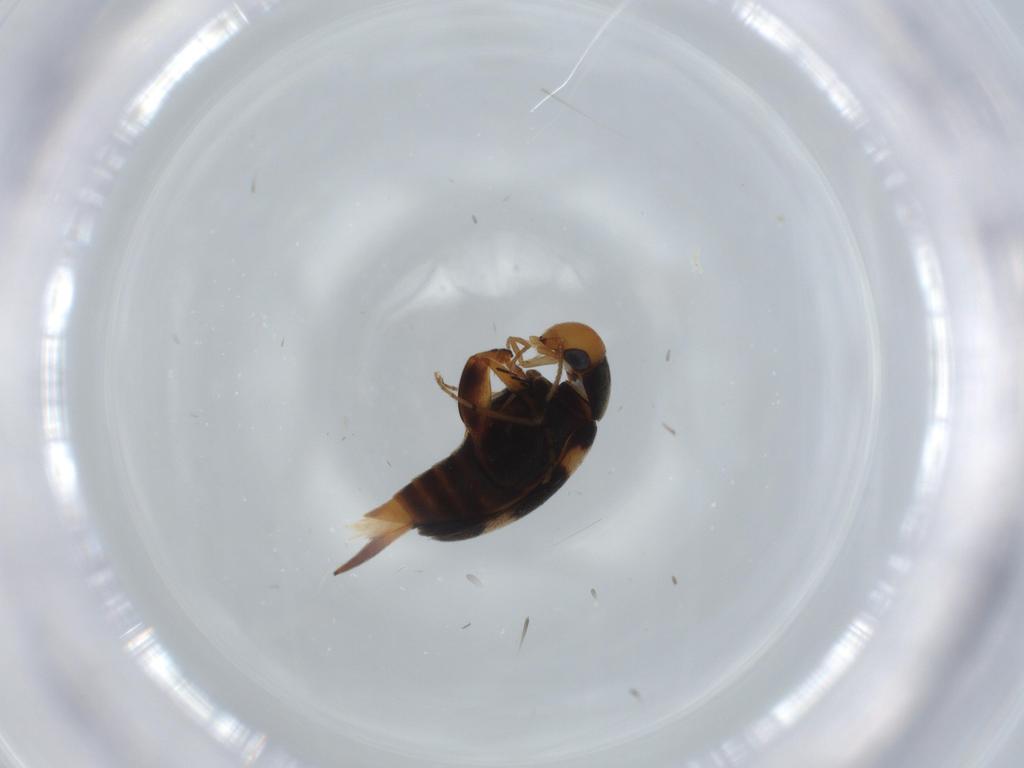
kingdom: Animalia
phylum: Arthropoda
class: Insecta
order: Coleoptera
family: Mordellidae
